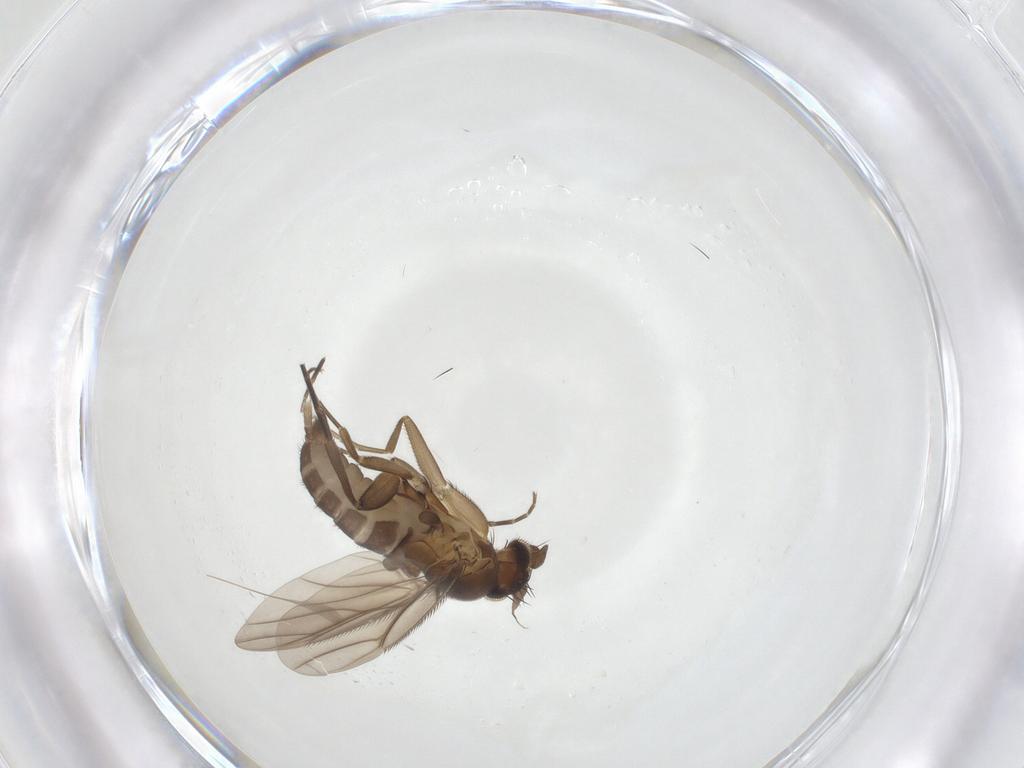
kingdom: Animalia
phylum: Arthropoda
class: Insecta
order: Diptera
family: Phoridae
